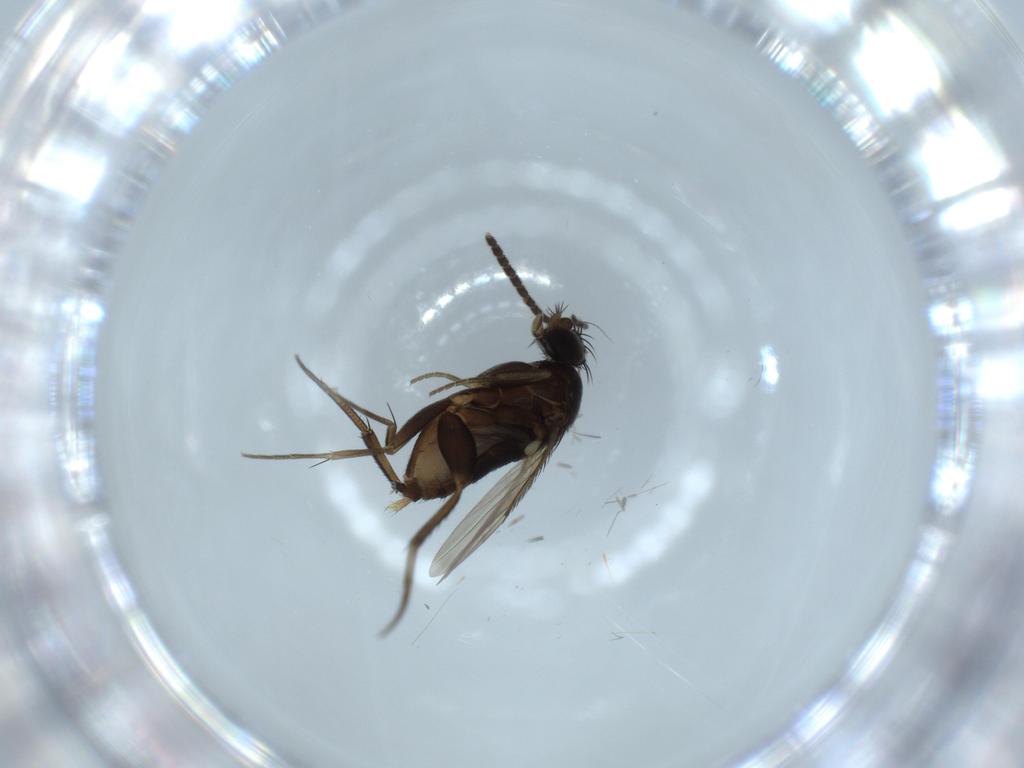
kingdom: Animalia
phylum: Arthropoda
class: Insecta
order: Diptera
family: Sciaridae
